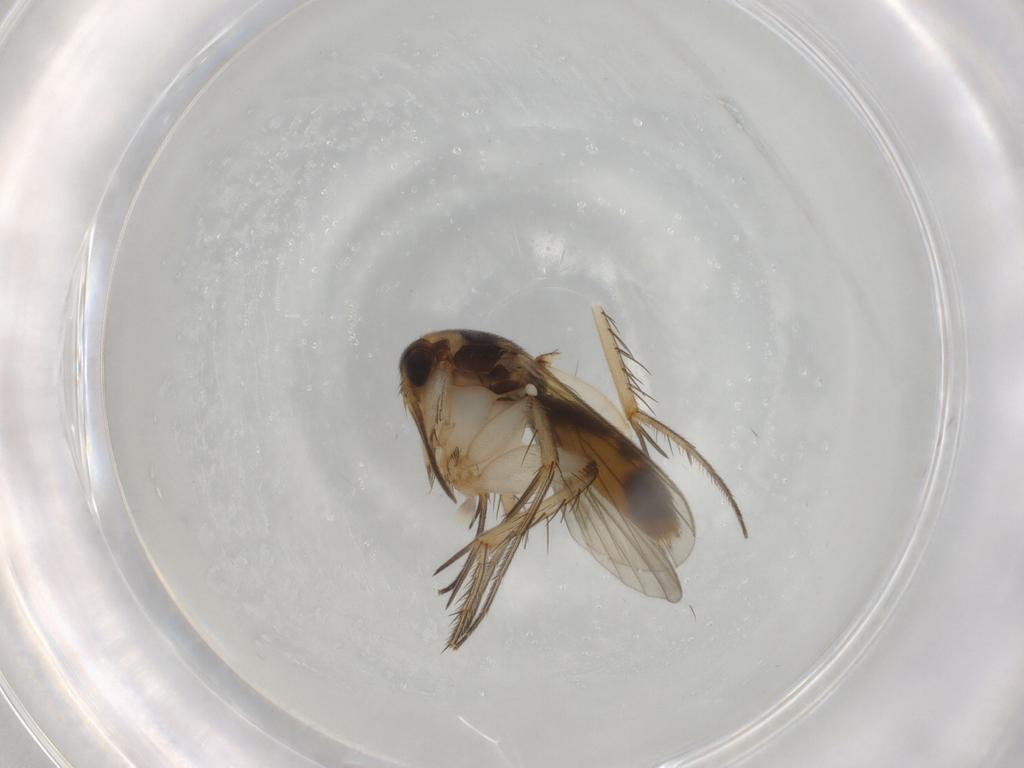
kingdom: Animalia
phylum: Arthropoda
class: Insecta
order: Diptera
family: Mycetophilidae
